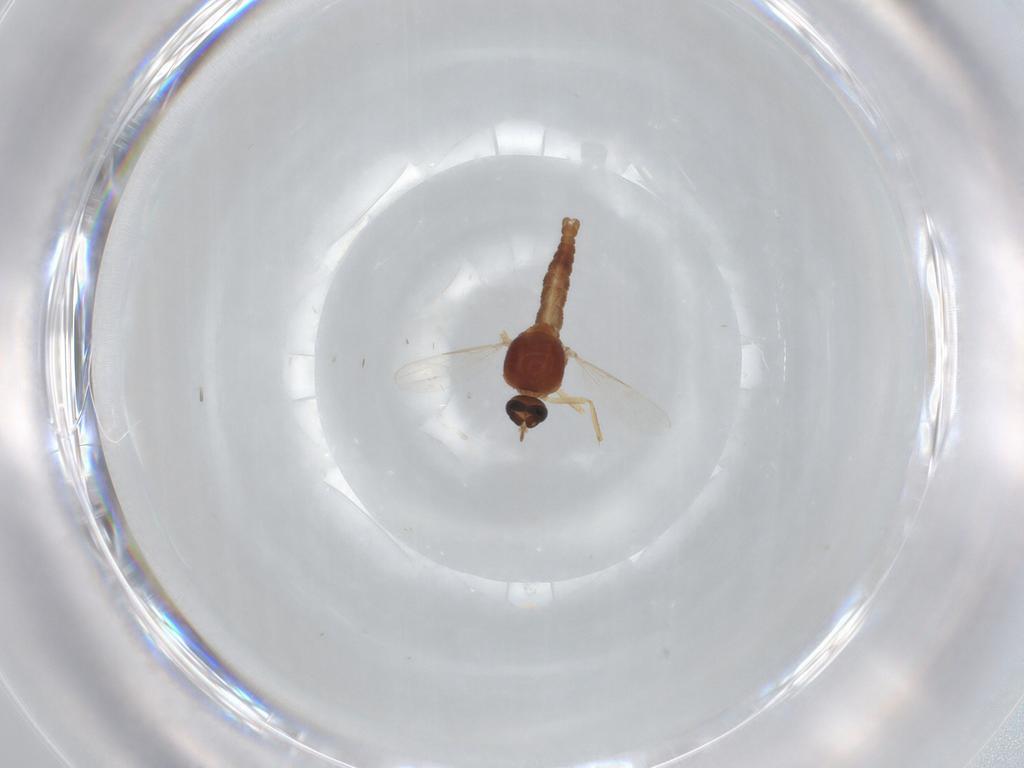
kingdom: Animalia
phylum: Arthropoda
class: Insecta
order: Diptera
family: Ceratopogonidae
